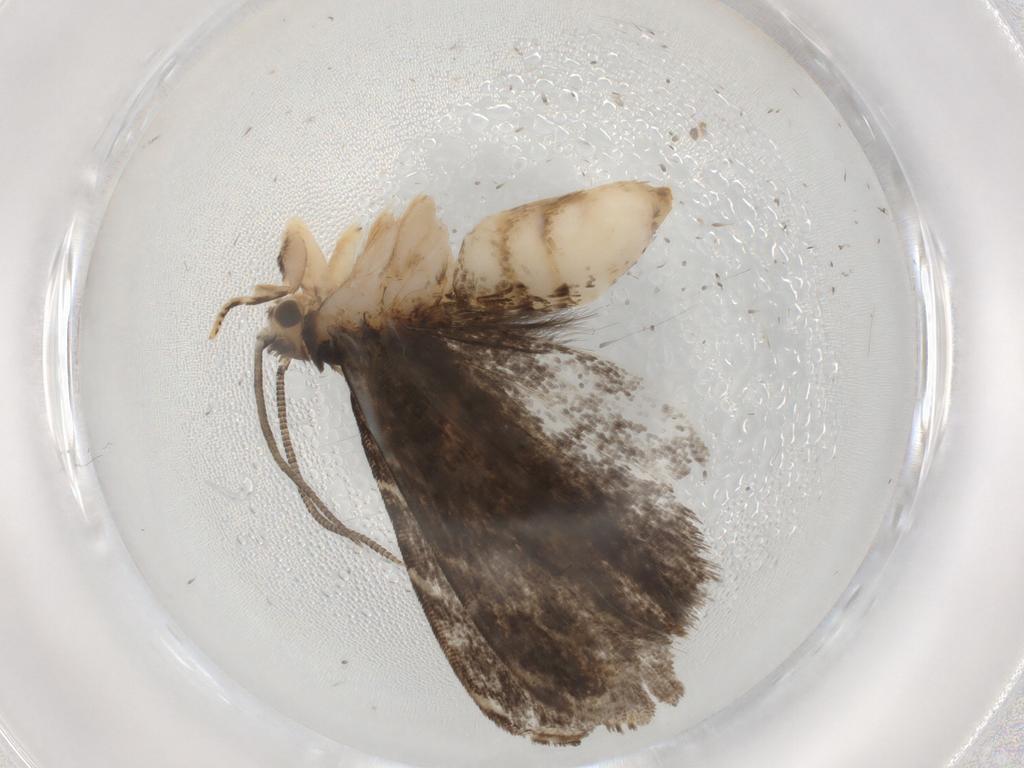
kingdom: Animalia
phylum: Arthropoda
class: Insecta
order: Lepidoptera
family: Dryadaulidae
